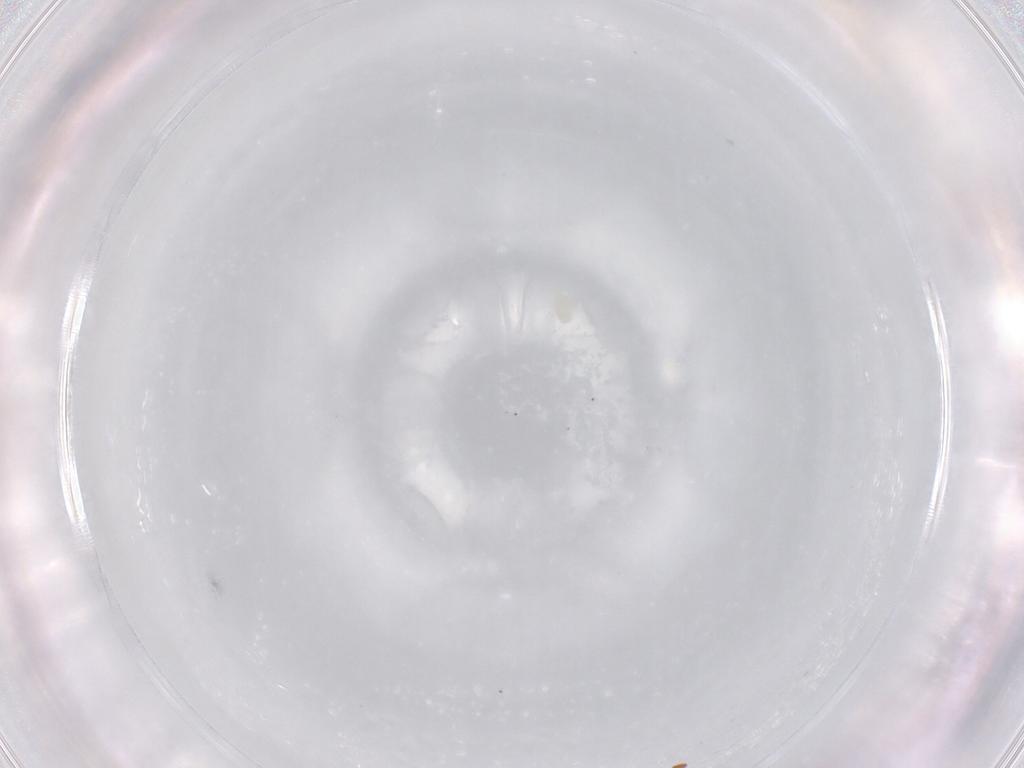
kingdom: Animalia
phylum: Arthropoda
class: Arachnida
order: Trombidiformes
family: Eupodidae
